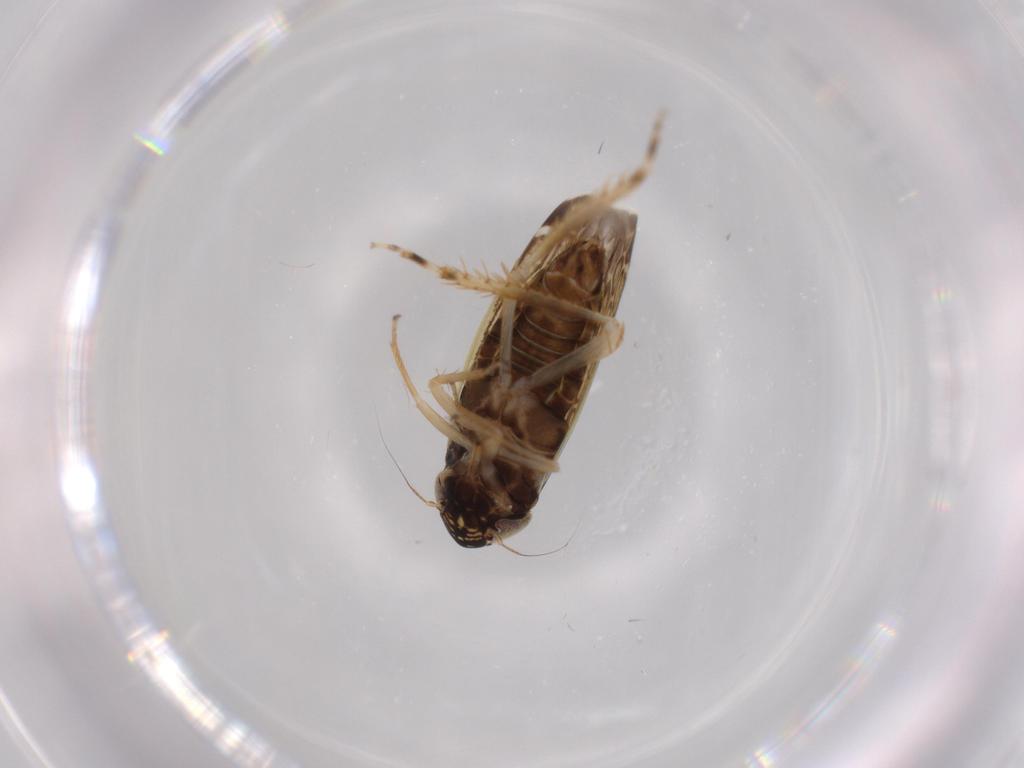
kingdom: Animalia
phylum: Arthropoda
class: Insecta
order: Hemiptera
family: Cicadellidae
